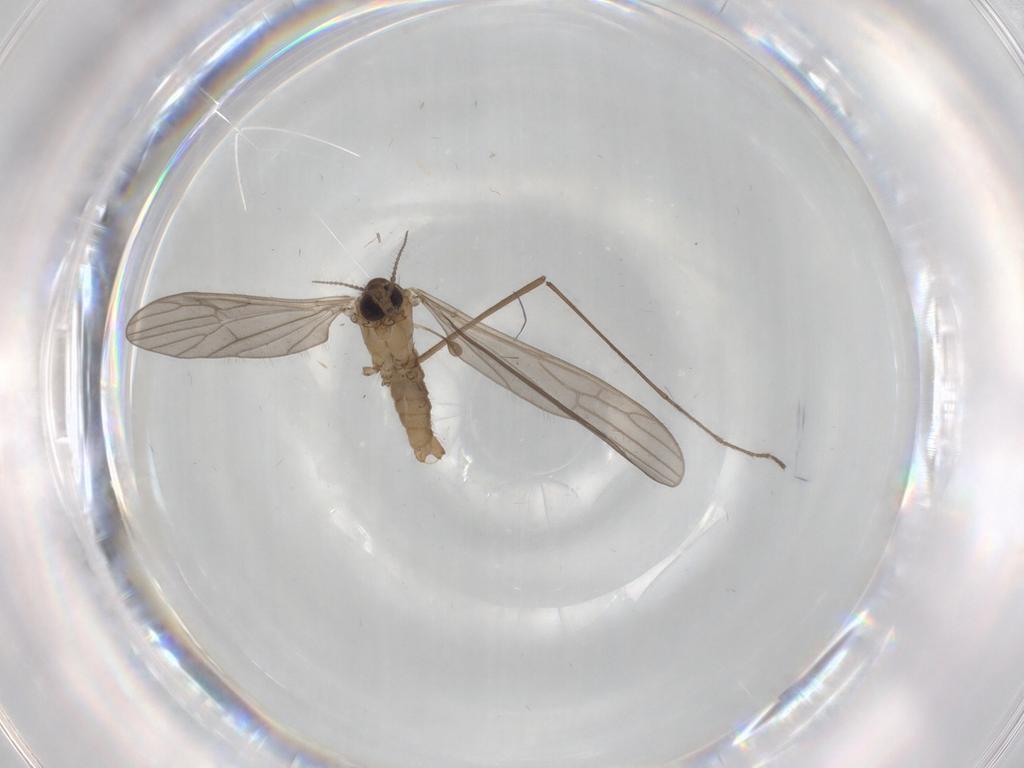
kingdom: Animalia
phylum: Arthropoda
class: Insecta
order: Diptera
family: Limoniidae
